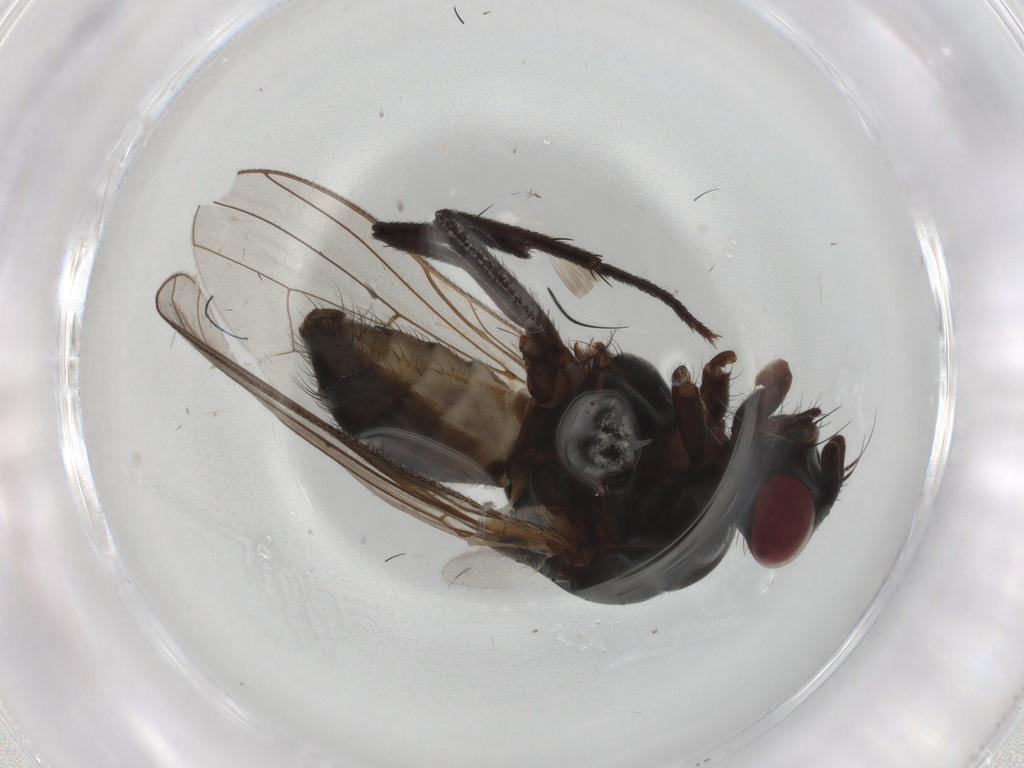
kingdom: Animalia
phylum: Arthropoda
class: Insecta
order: Diptera
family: Anthomyiidae
